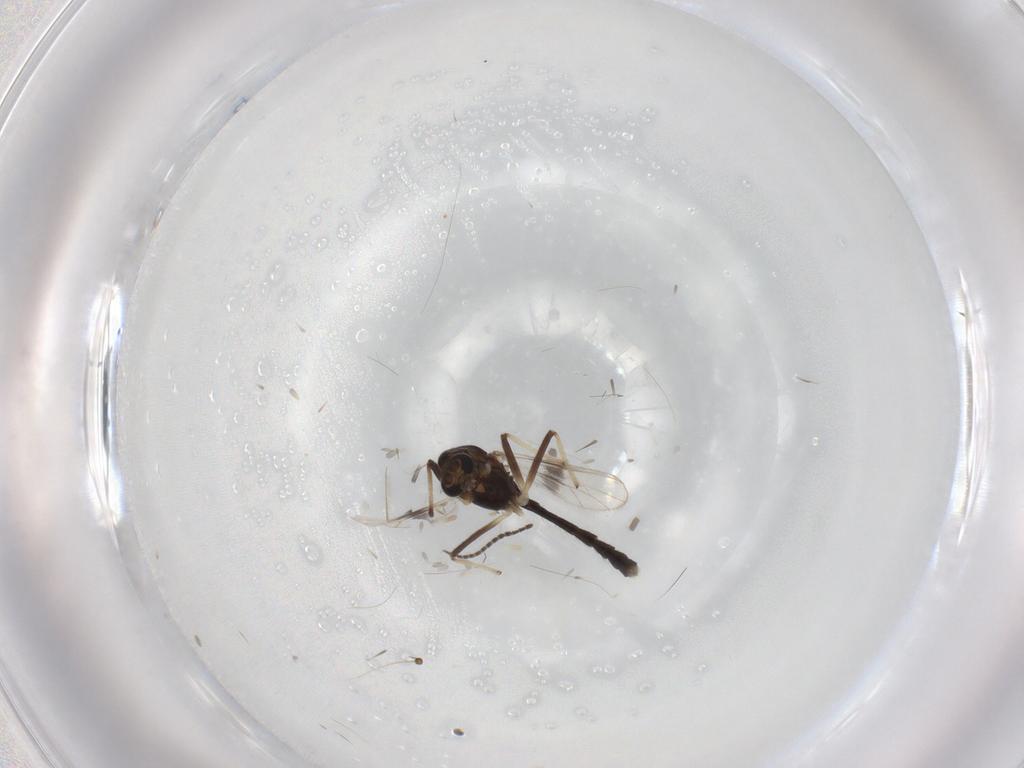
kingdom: Animalia
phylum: Arthropoda
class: Insecta
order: Diptera
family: Chironomidae
